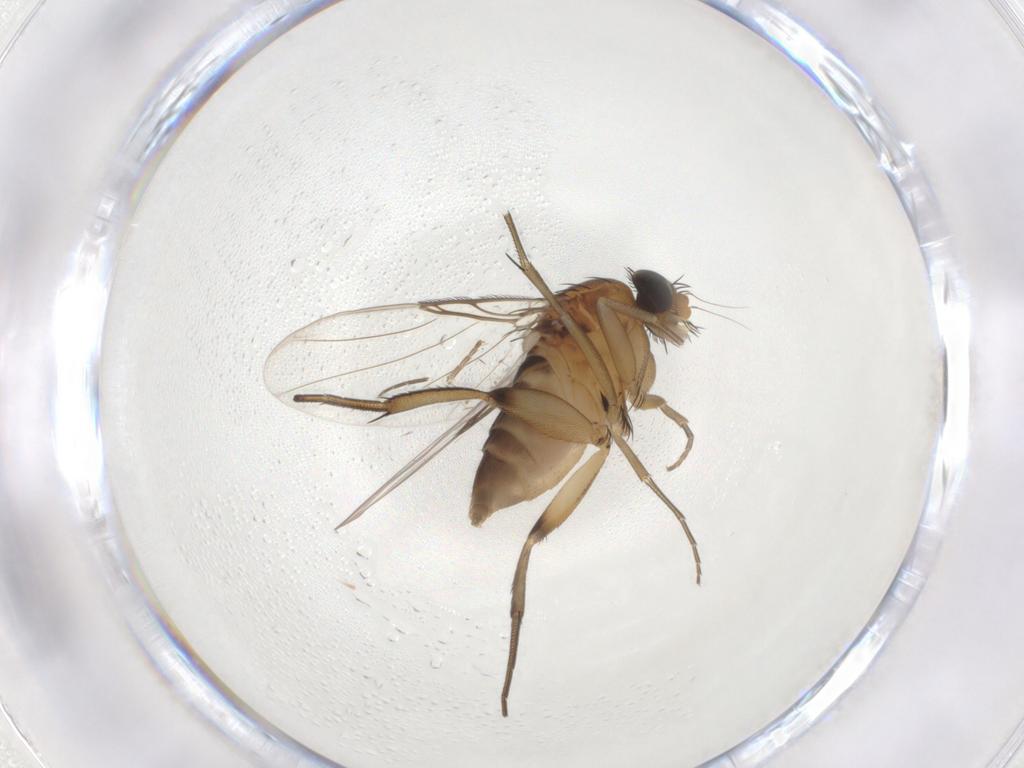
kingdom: Animalia
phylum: Arthropoda
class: Insecta
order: Diptera
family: Phoridae
